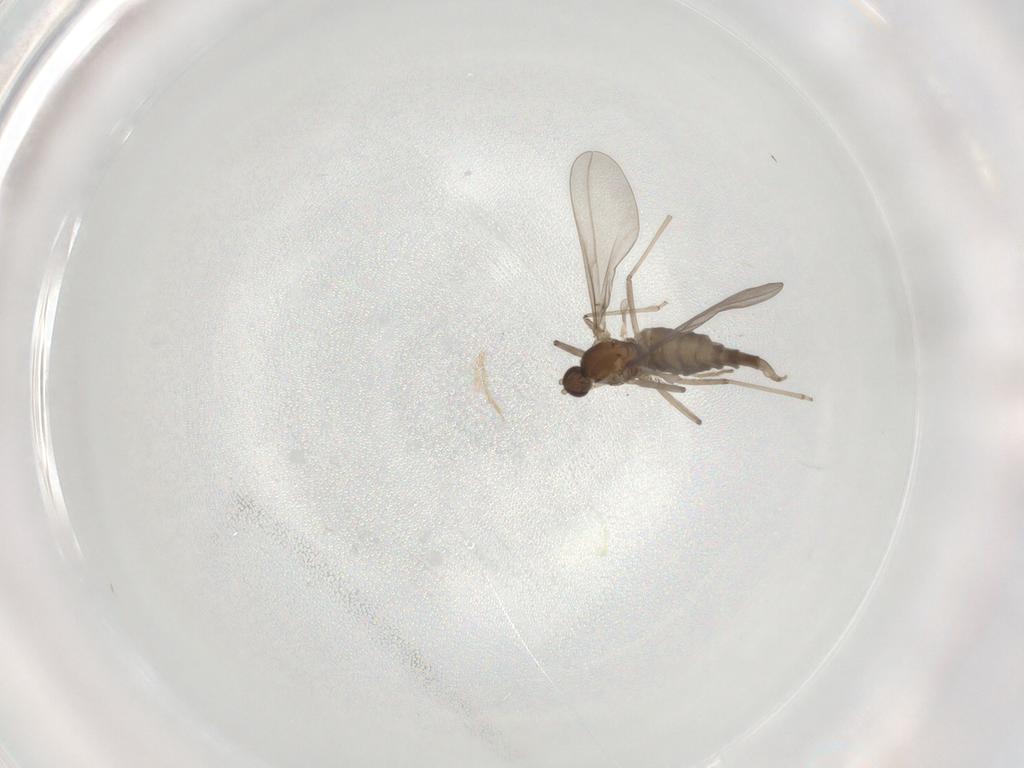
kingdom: Animalia
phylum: Arthropoda
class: Insecta
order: Diptera
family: Cecidomyiidae
